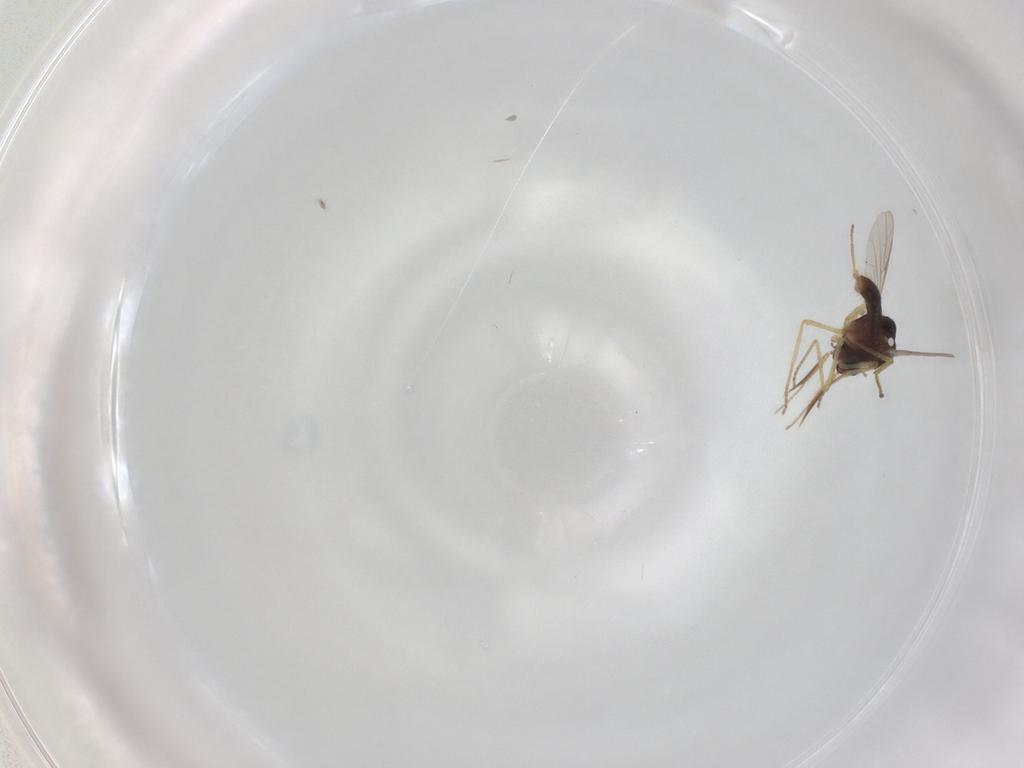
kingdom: Animalia
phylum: Arthropoda
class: Insecta
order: Diptera
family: Ceratopogonidae
